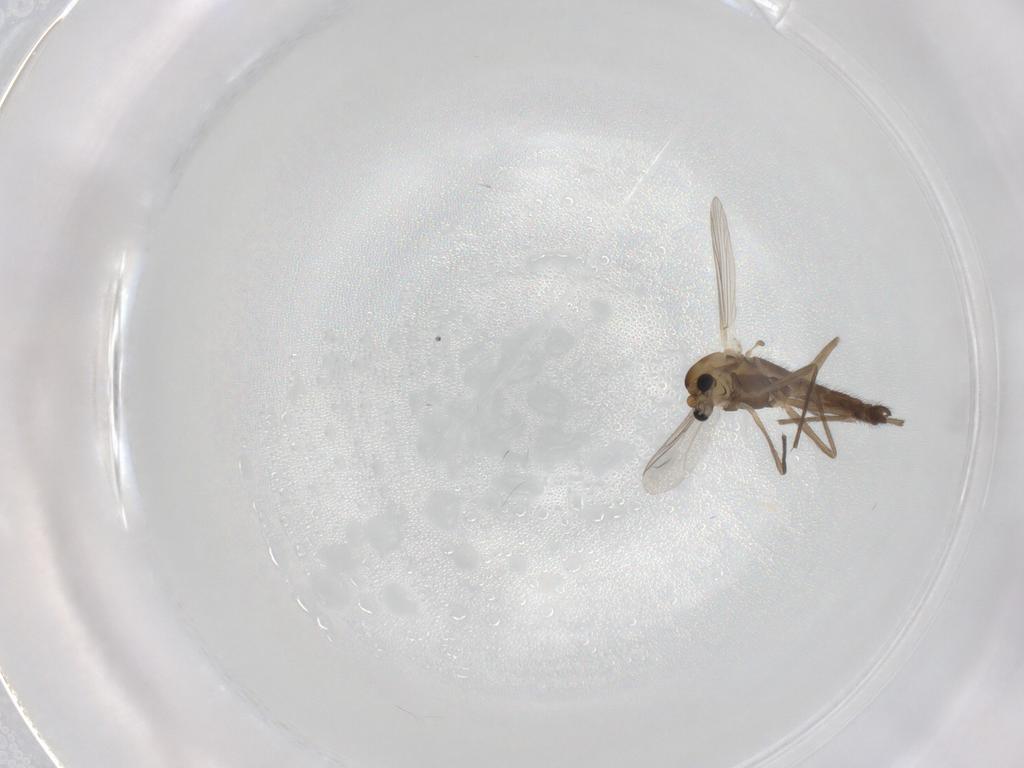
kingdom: Animalia
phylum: Arthropoda
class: Insecta
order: Diptera
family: Chironomidae
